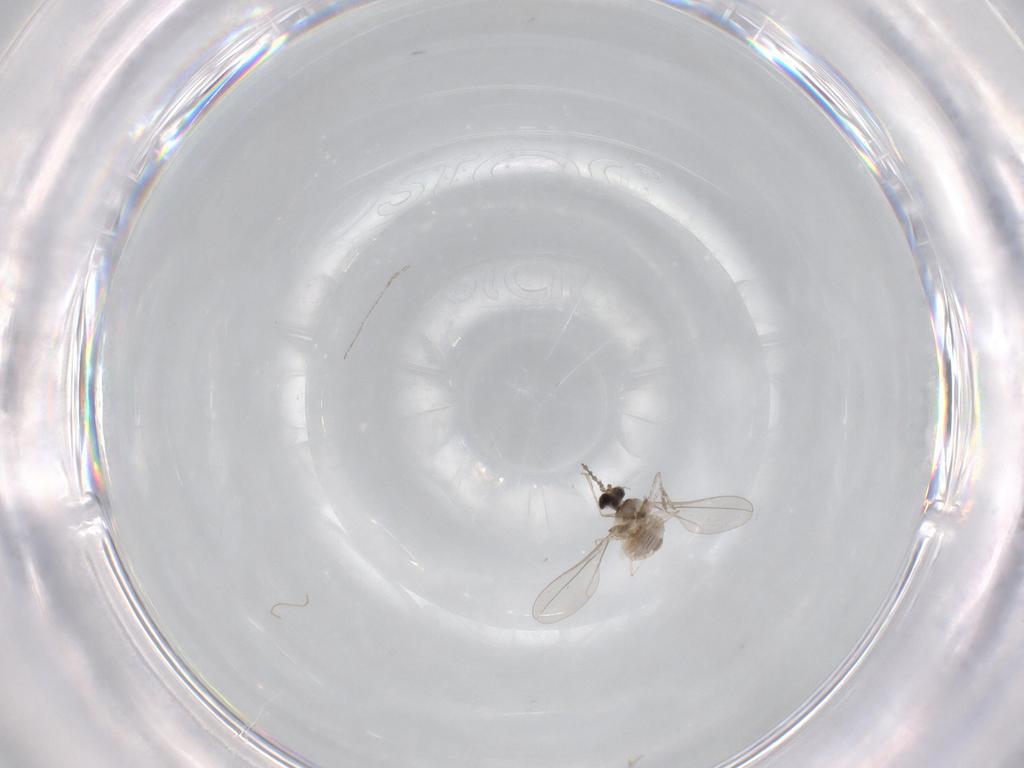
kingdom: Animalia
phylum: Arthropoda
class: Insecta
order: Diptera
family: Cecidomyiidae
